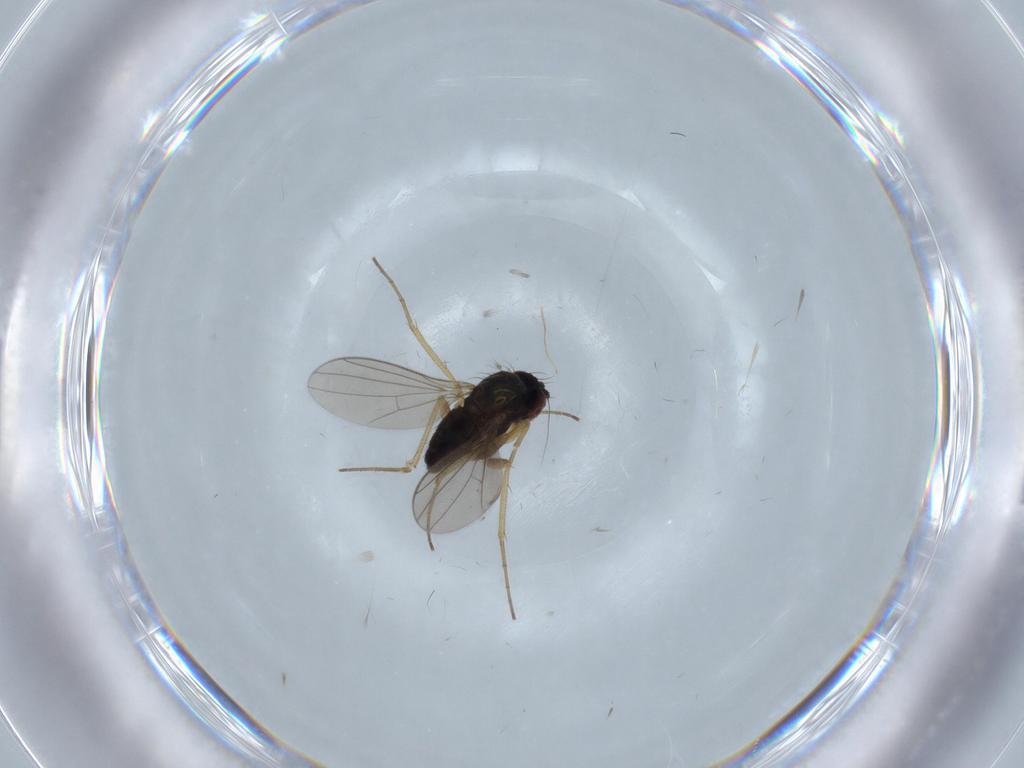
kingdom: Animalia
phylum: Arthropoda
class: Insecta
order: Diptera
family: Dolichopodidae
